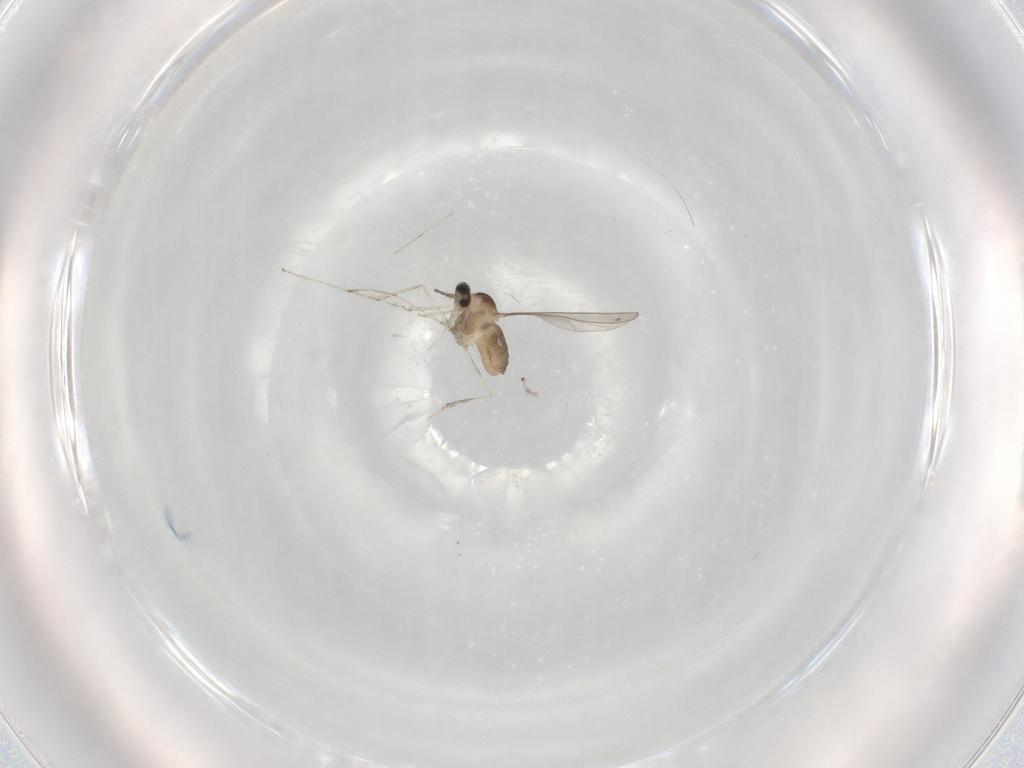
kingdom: Animalia
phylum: Arthropoda
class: Insecta
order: Diptera
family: Cecidomyiidae
